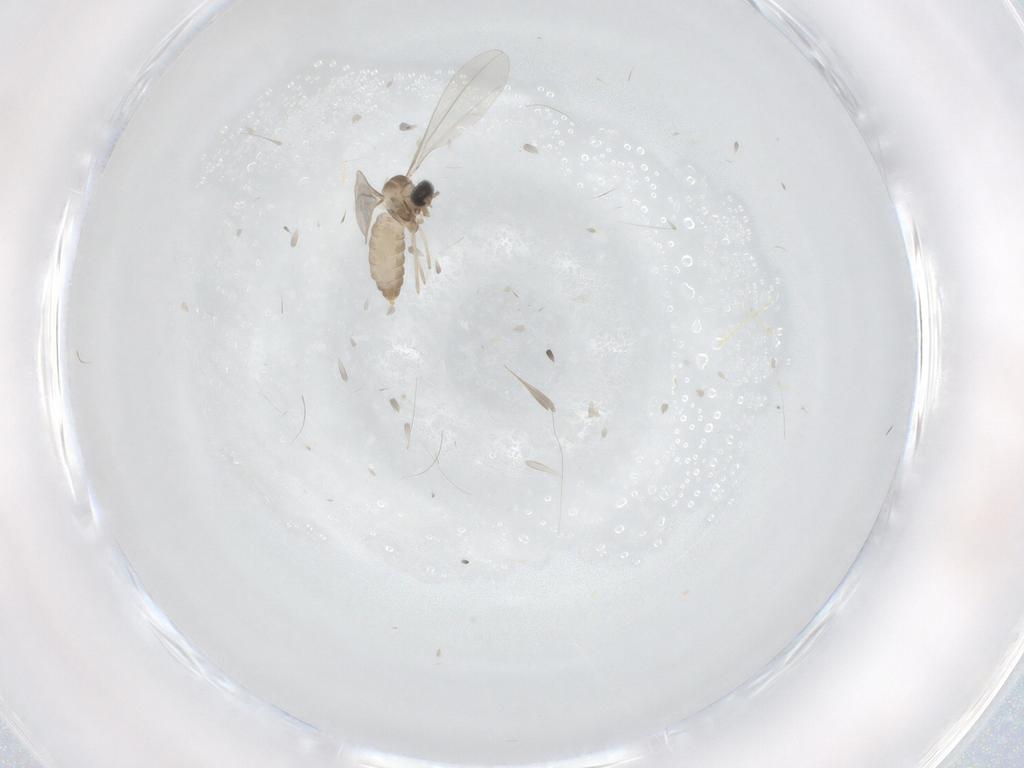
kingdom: Animalia
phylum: Arthropoda
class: Insecta
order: Diptera
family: Cecidomyiidae
